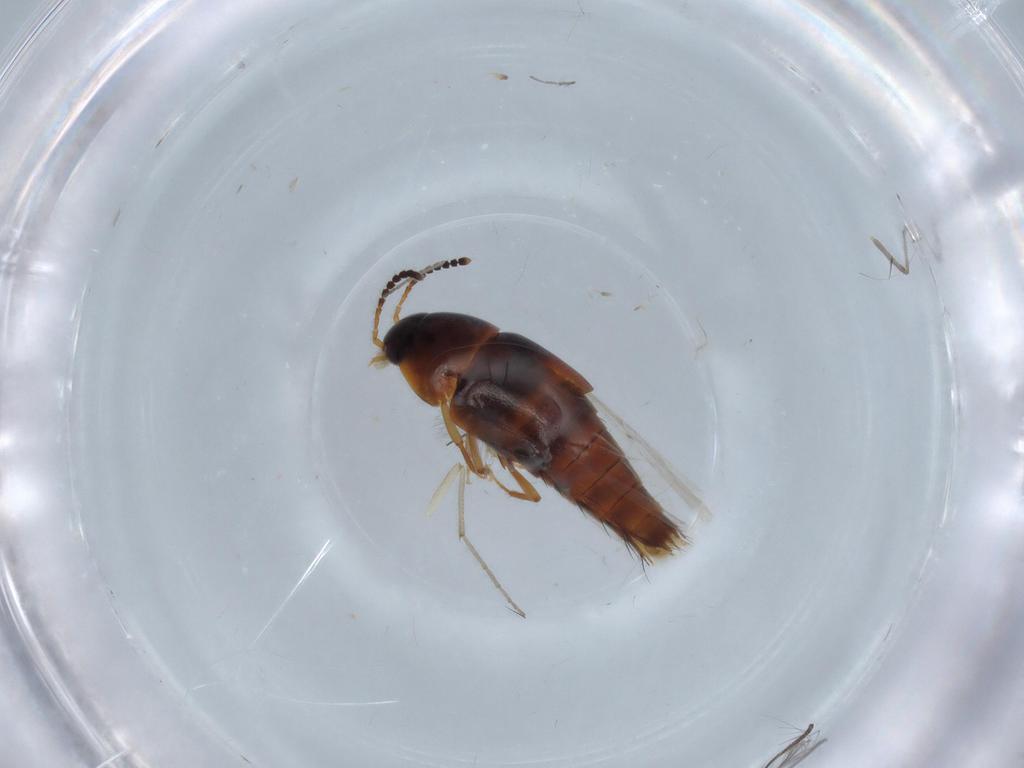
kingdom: Animalia
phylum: Arthropoda
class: Insecta
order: Coleoptera
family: Staphylinidae
